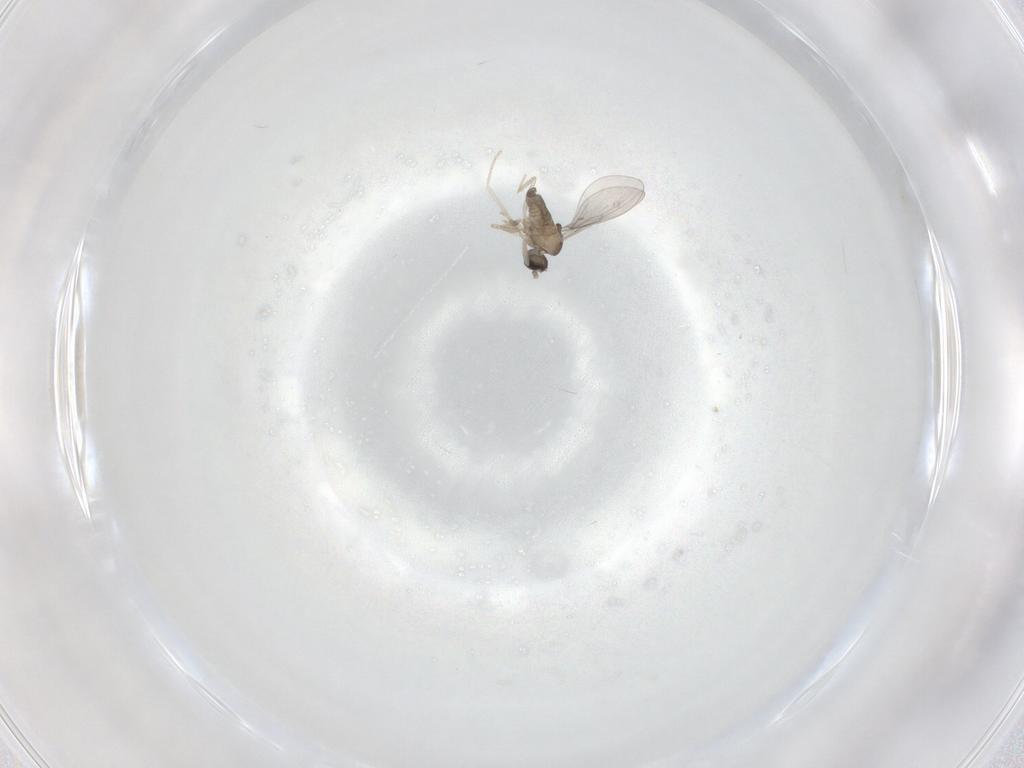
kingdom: Animalia
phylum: Arthropoda
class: Insecta
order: Diptera
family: Cecidomyiidae
